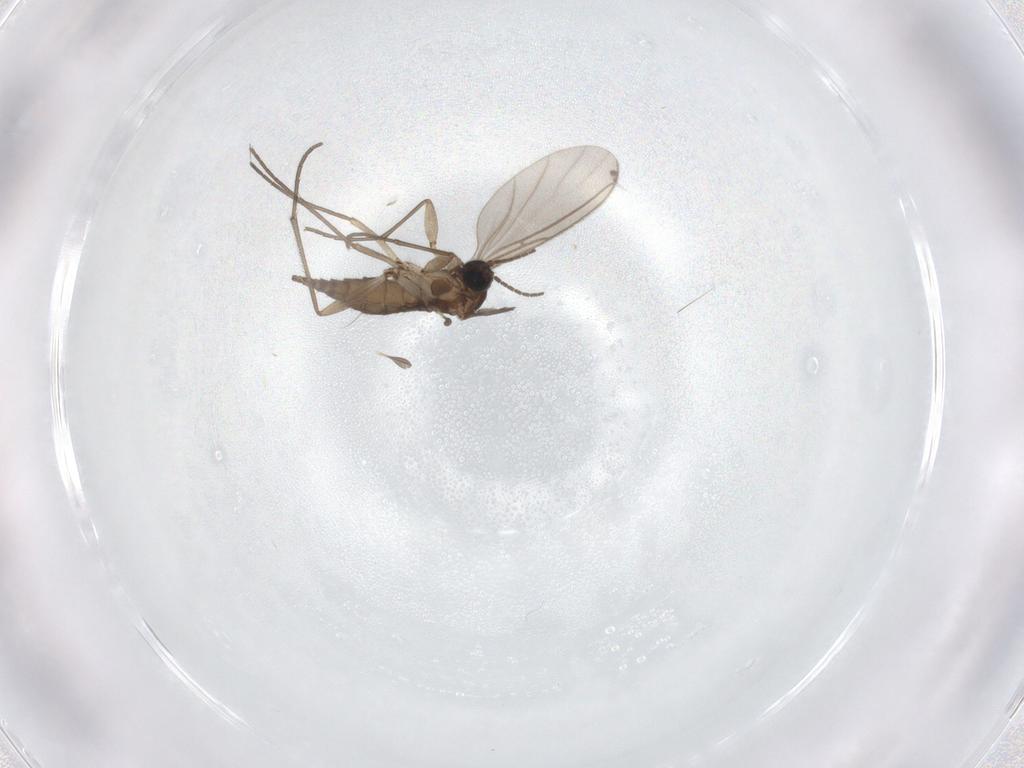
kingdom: Animalia
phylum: Arthropoda
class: Insecta
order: Diptera
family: Sciaridae
